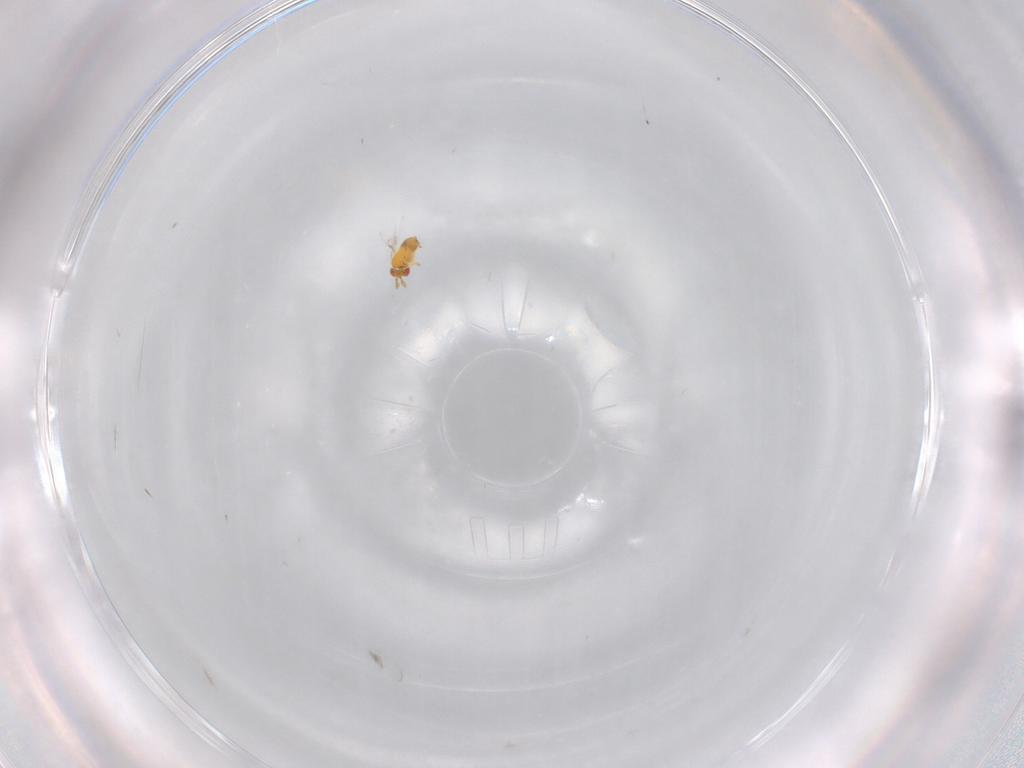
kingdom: Animalia
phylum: Arthropoda
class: Insecta
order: Hymenoptera
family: Trichogrammatidae
